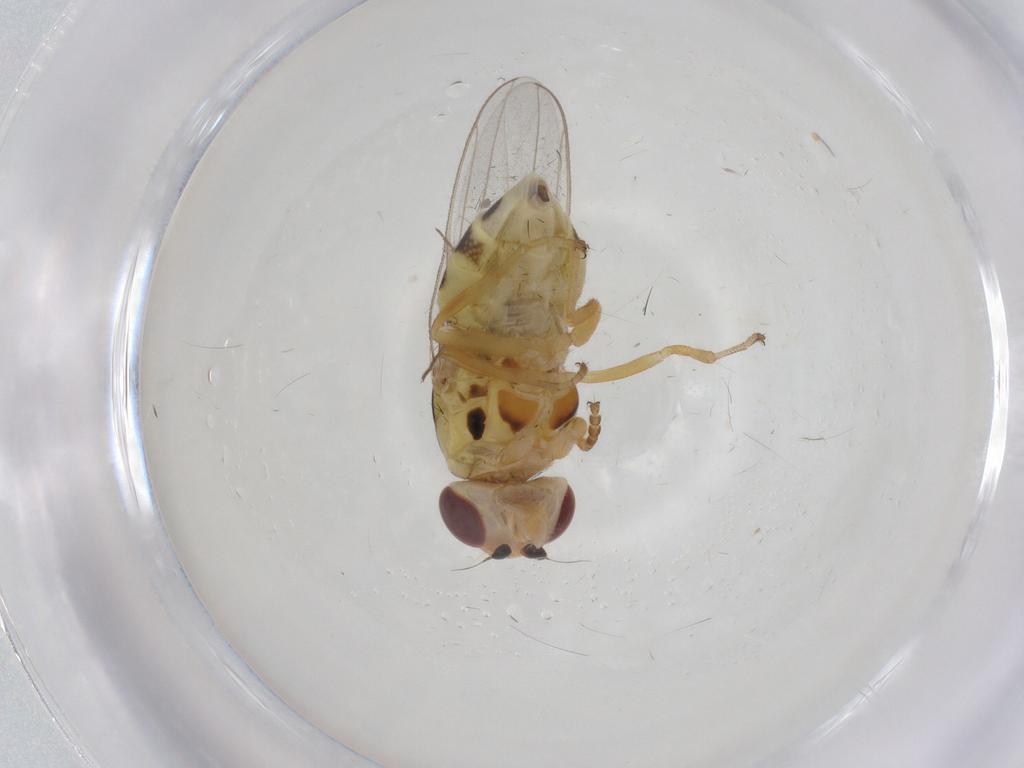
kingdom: Animalia
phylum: Arthropoda
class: Insecta
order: Diptera
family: Chloropidae
